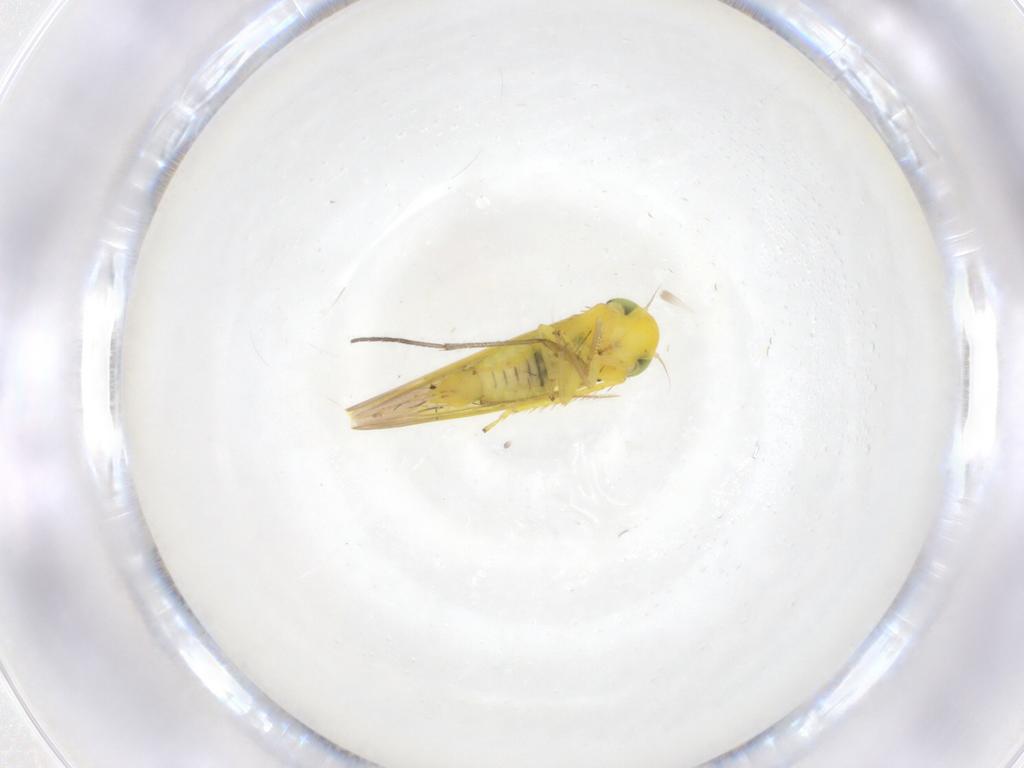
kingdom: Animalia
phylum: Arthropoda
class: Insecta
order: Hemiptera
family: Cicadellidae
